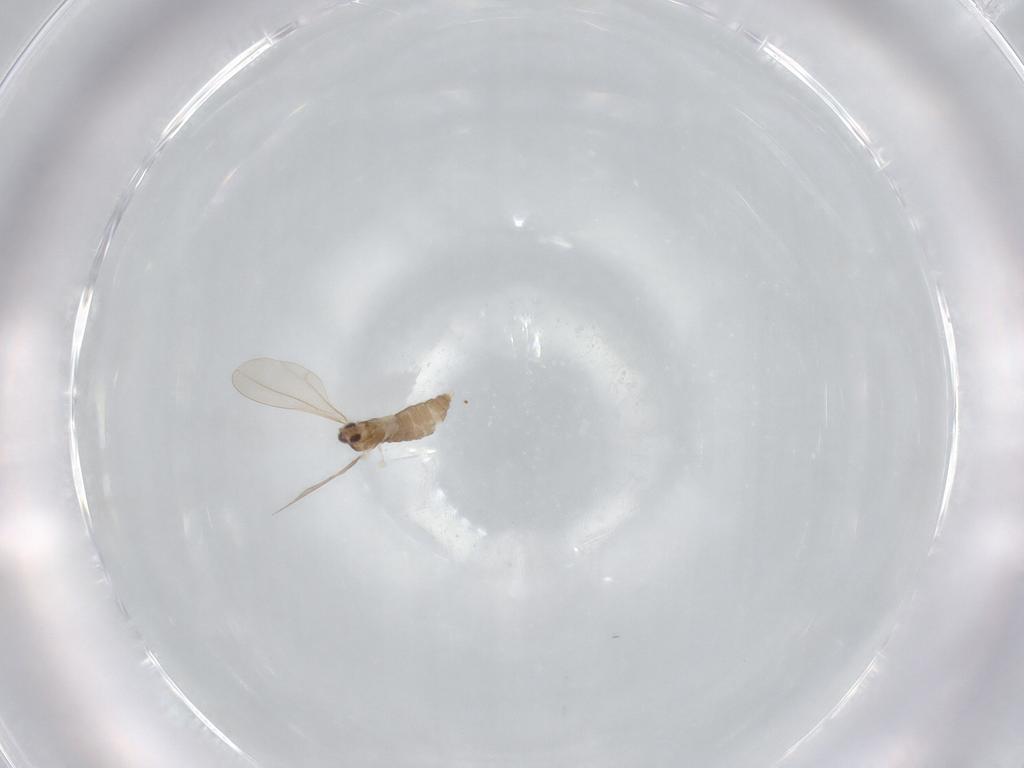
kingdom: Animalia
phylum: Arthropoda
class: Insecta
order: Diptera
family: Cecidomyiidae
